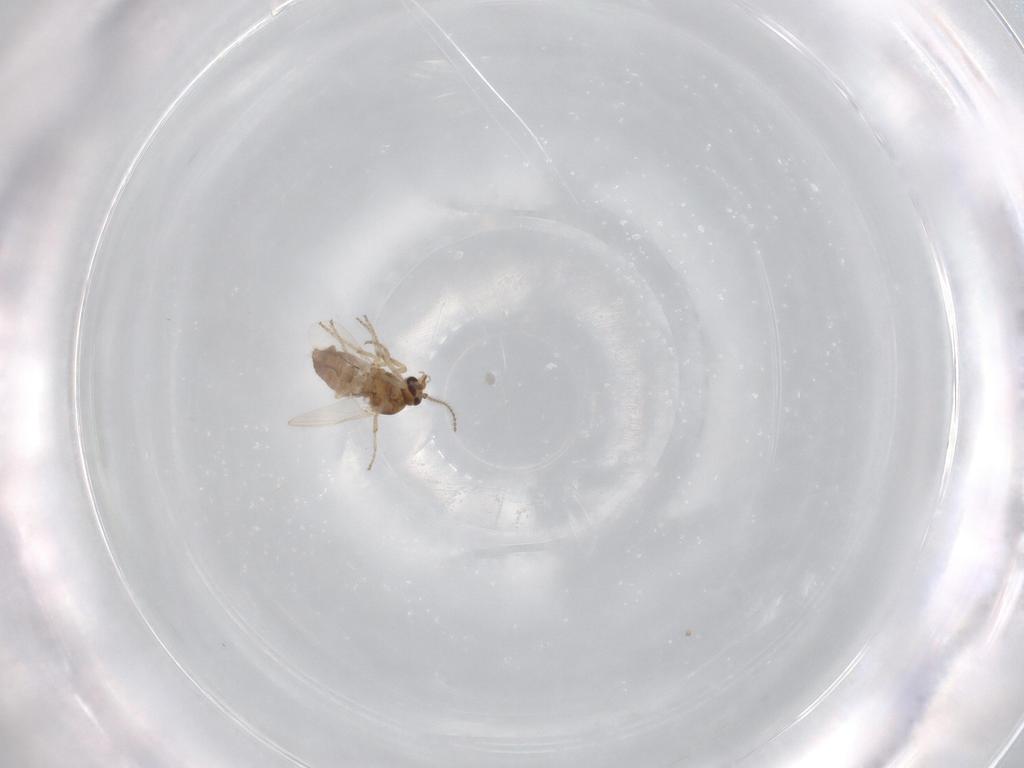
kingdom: Animalia
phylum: Arthropoda
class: Insecta
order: Diptera
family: Ceratopogonidae
